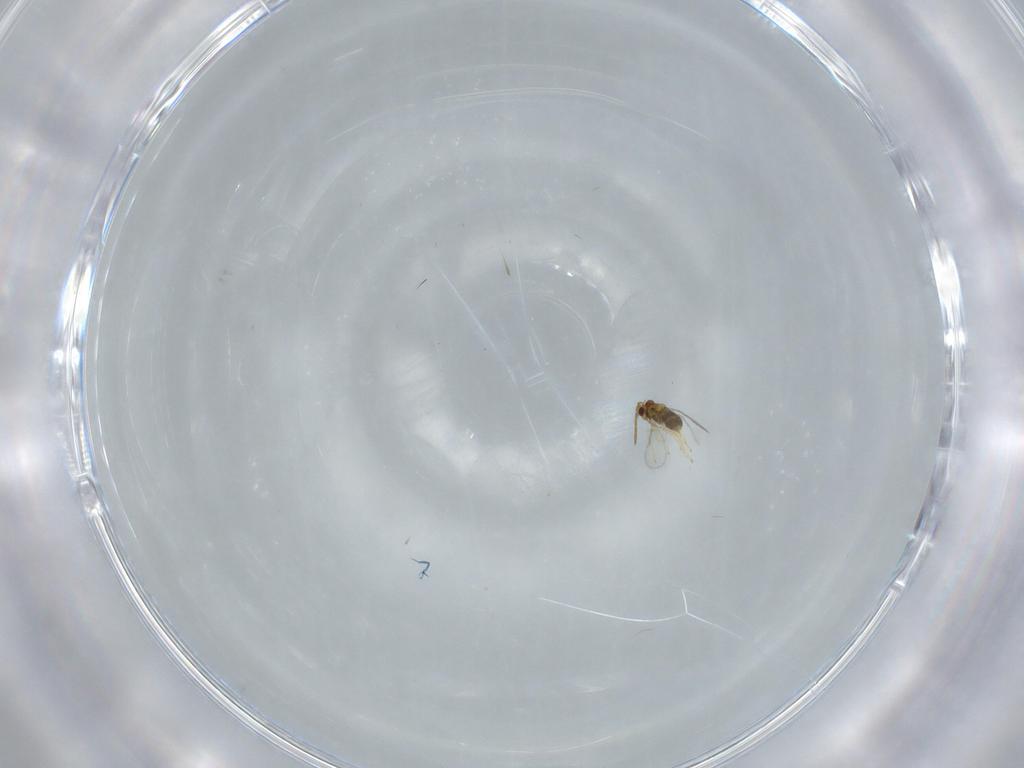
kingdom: Animalia
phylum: Arthropoda
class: Insecta
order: Hymenoptera
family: Aphelinidae
